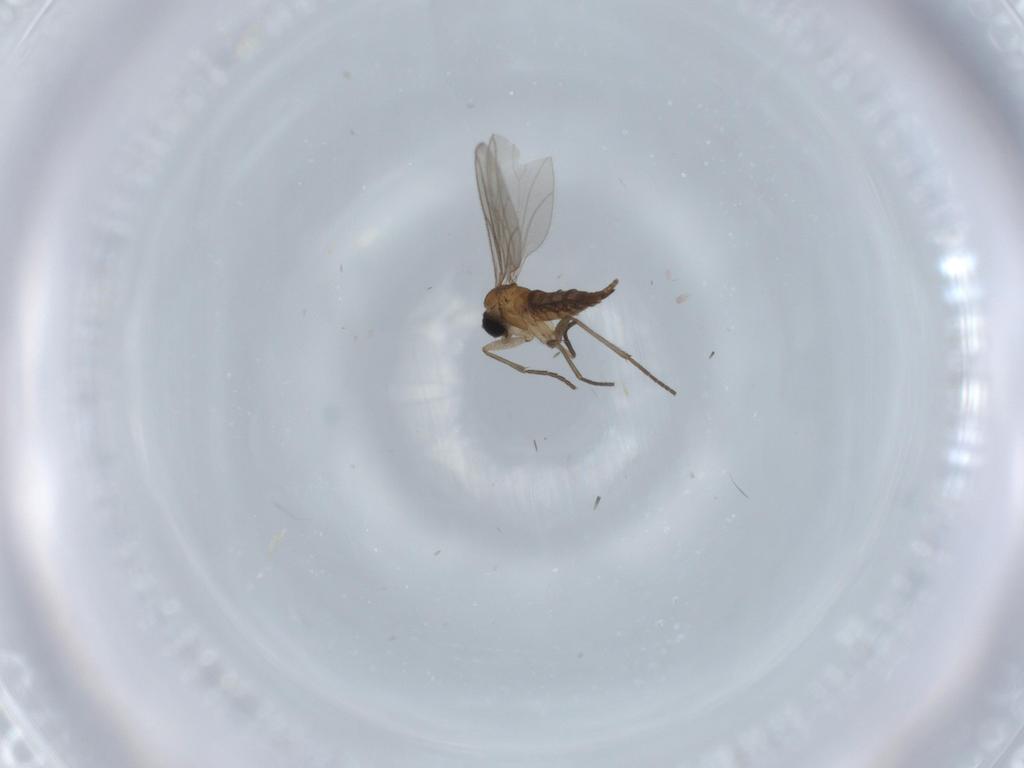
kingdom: Animalia
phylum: Arthropoda
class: Insecta
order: Diptera
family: Sciaridae
